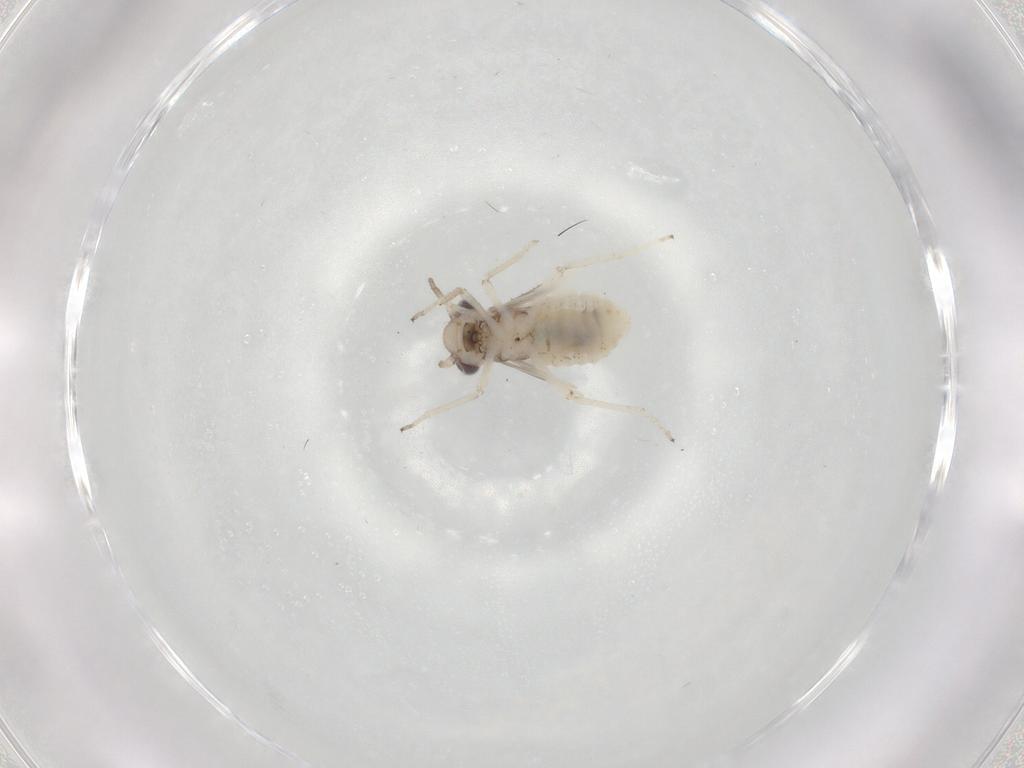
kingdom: Animalia
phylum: Arthropoda
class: Insecta
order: Psocodea
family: Psocidae
